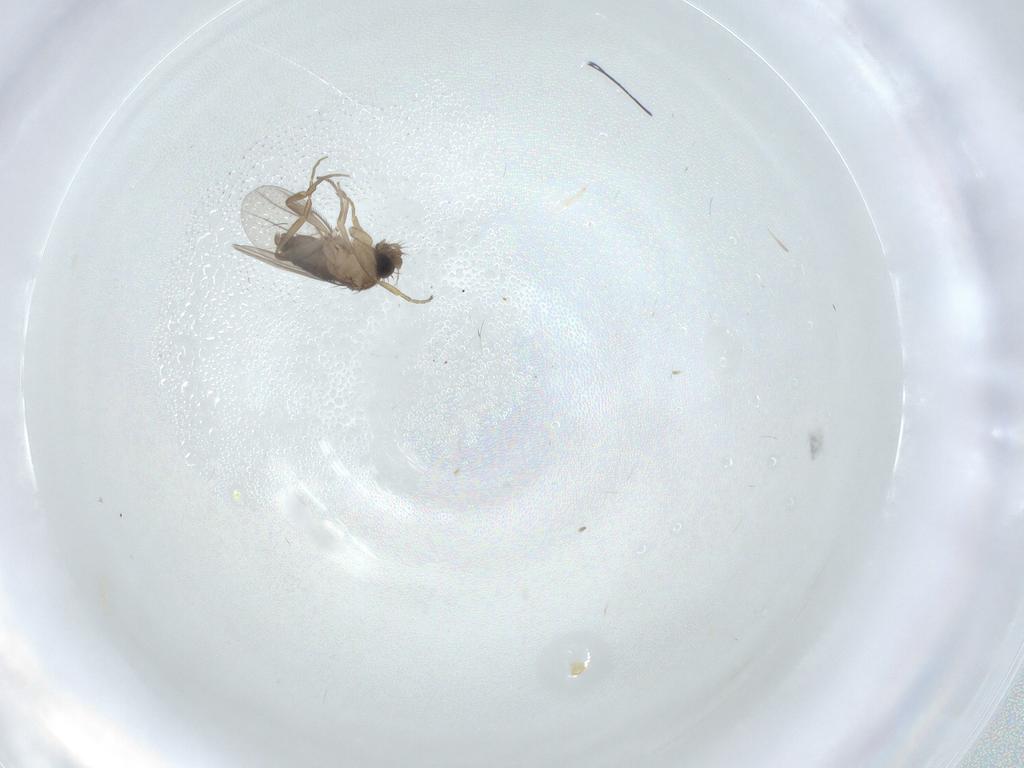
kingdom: Animalia
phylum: Arthropoda
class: Insecta
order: Diptera
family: Phoridae
